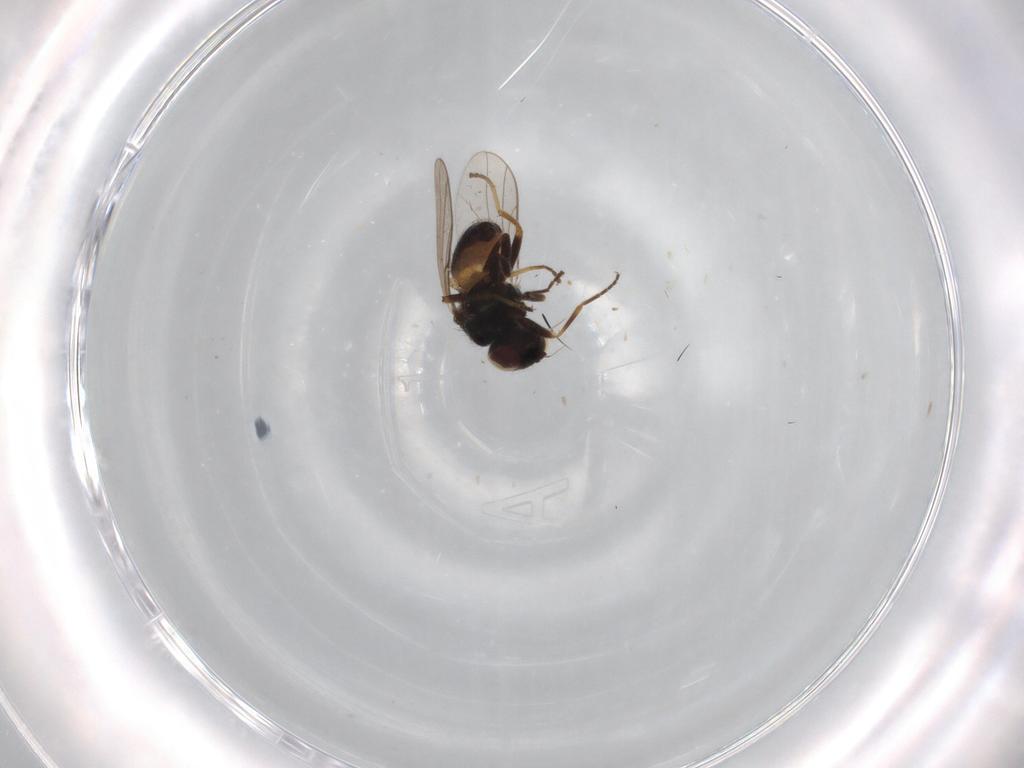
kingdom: Animalia
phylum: Arthropoda
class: Insecta
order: Diptera
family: Chloropidae
